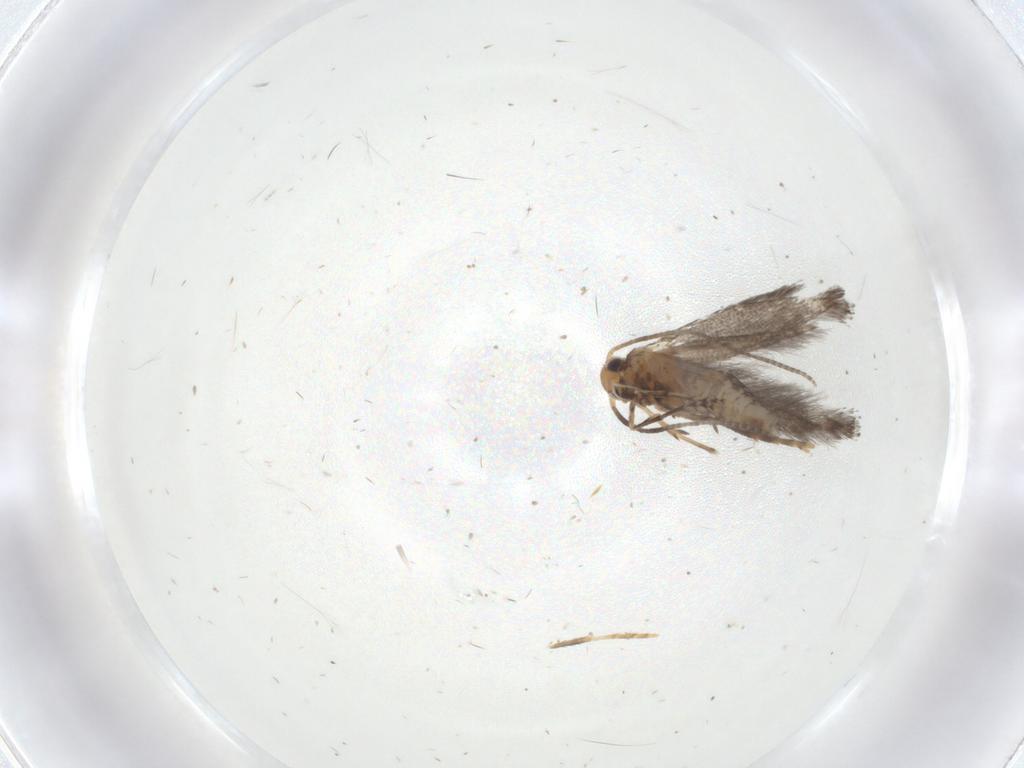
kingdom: Animalia
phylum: Arthropoda
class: Insecta
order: Lepidoptera
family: Gracillariidae
